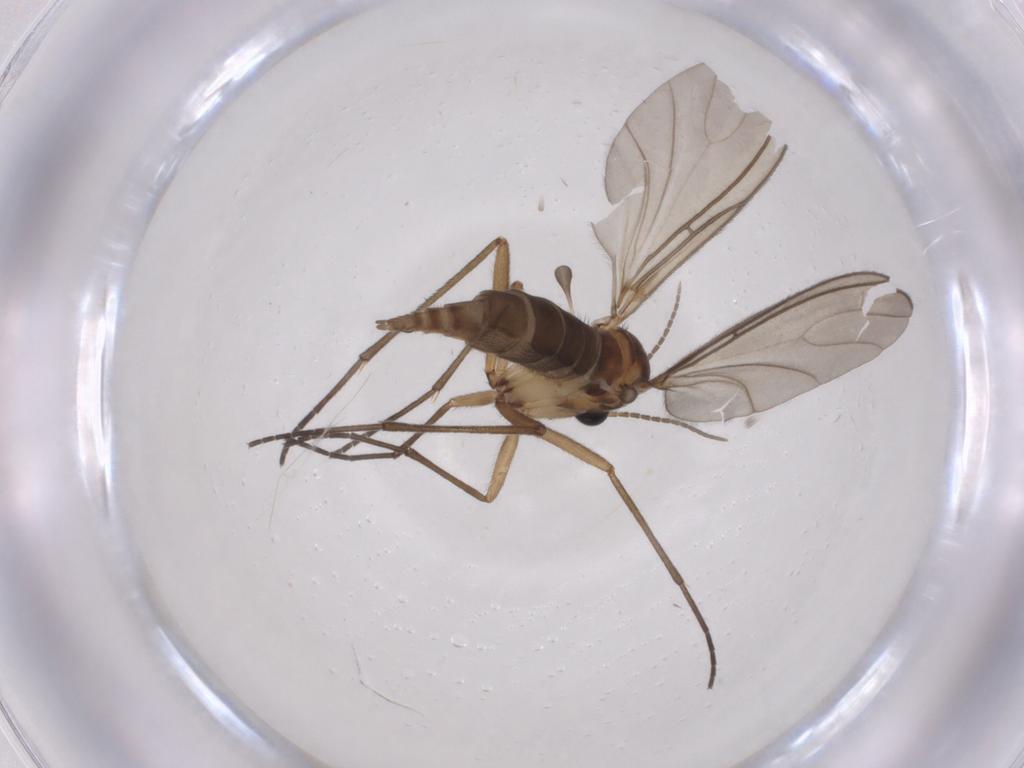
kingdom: Animalia
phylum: Arthropoda
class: Insecta
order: Diptera
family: Sciaridae
